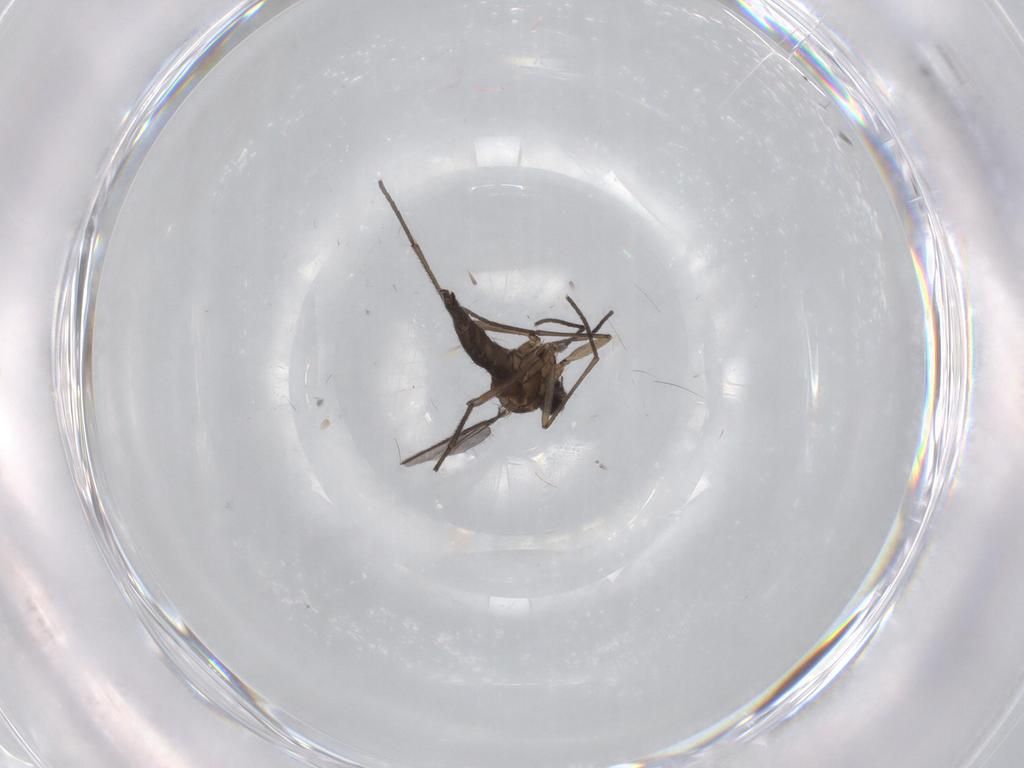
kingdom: Animalia
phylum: Arthropoda
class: Insecta
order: Diptera
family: Sciaridae
